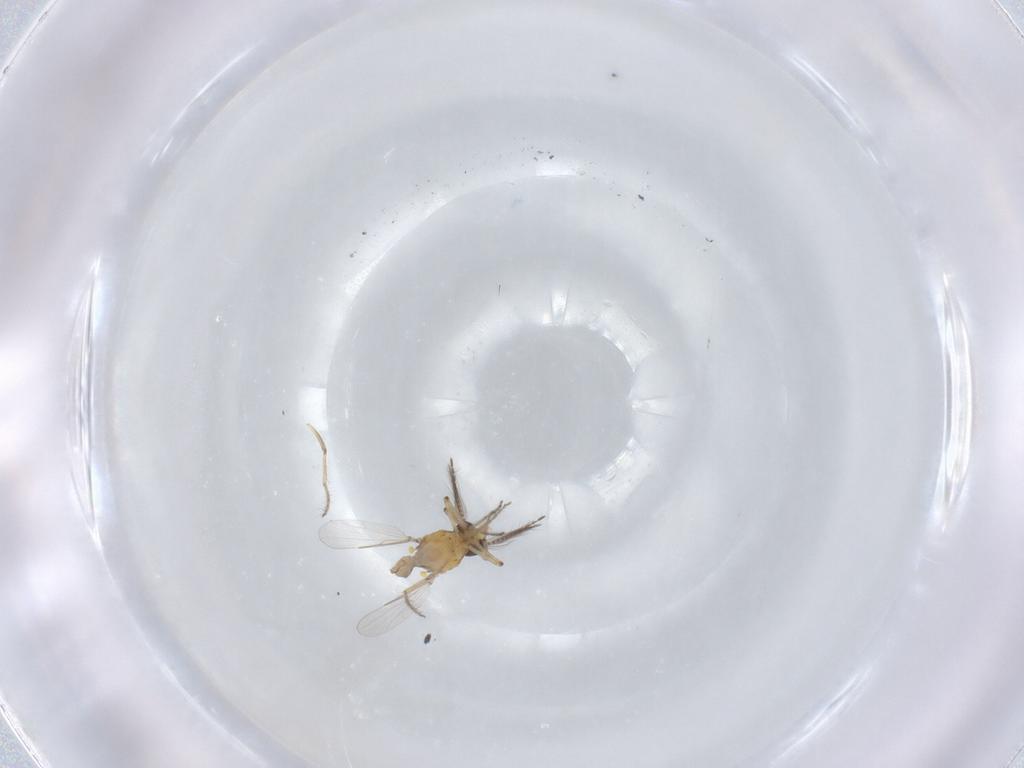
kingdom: Animalia
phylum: Arthropoda
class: Insecta
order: Diptera
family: Ceratopogonidae
